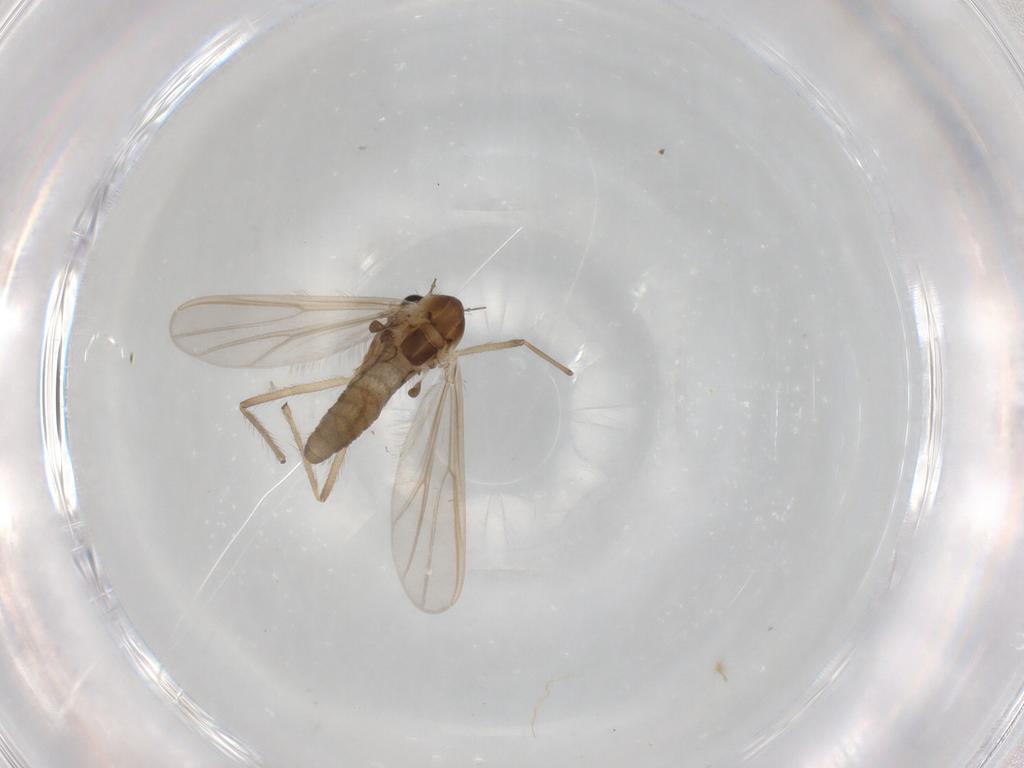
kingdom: Animalia
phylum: Arthropoda
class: Insecta
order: Diptera
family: Chironomidae
